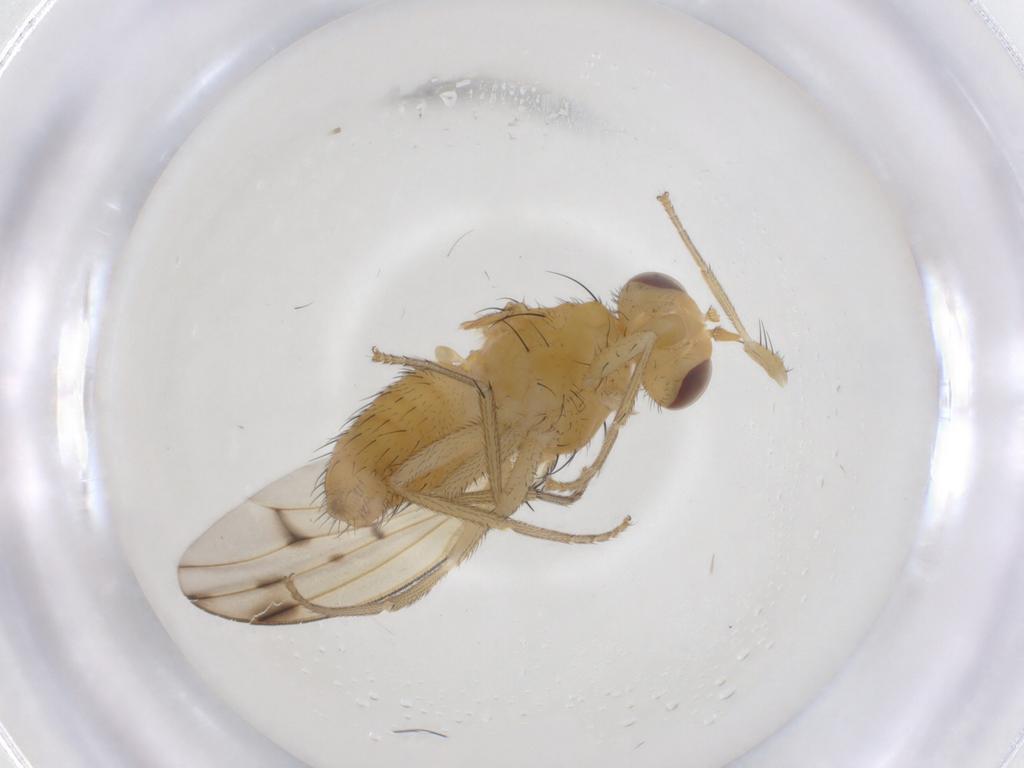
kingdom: Animalia
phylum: Arthropoda
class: Insecta
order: Diptera
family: Lauxaniidae
